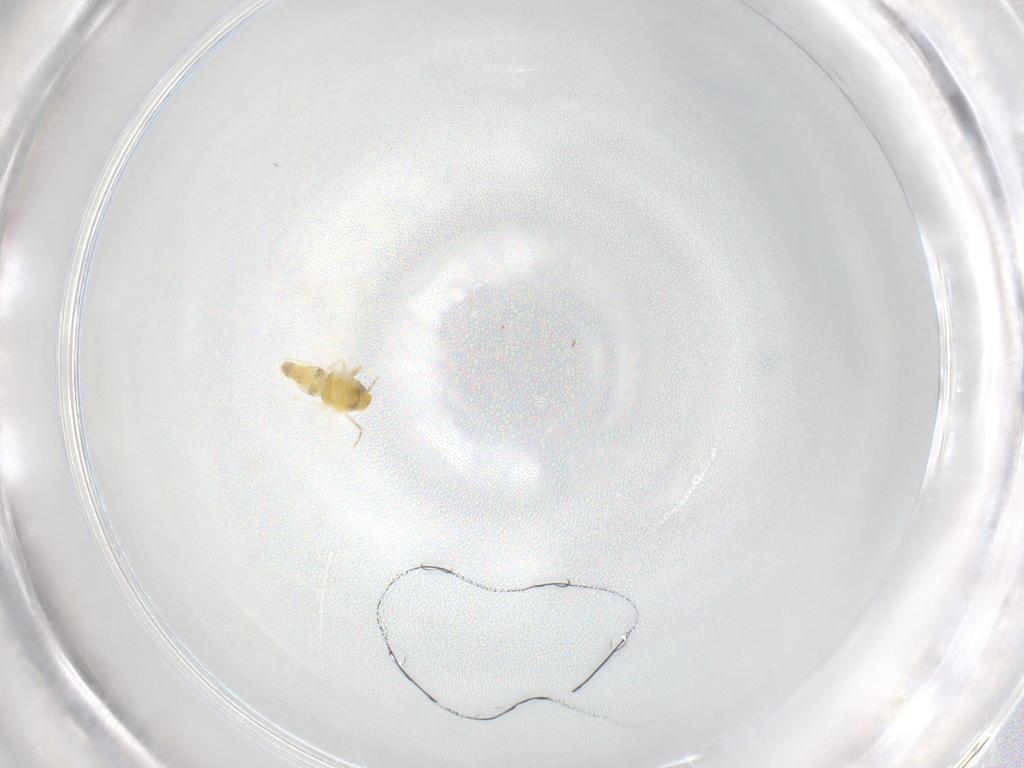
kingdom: Animalia
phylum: Arthropoda
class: Insecta
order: Hemiptera
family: Aleyrodidae
